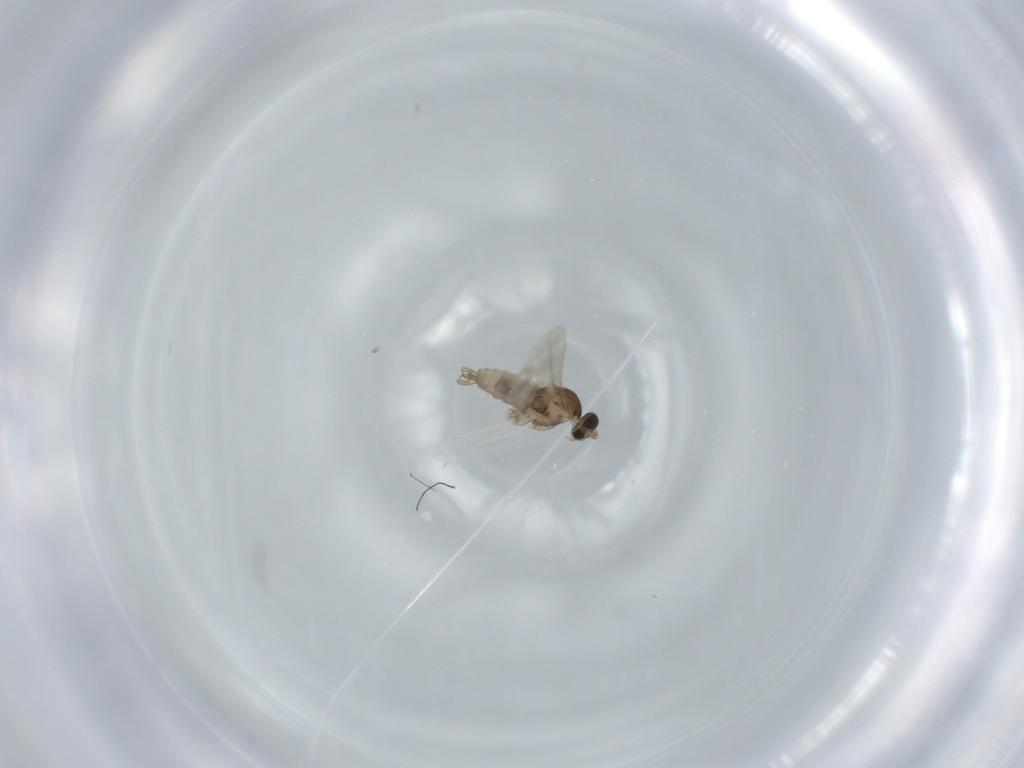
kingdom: Animalia
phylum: Arthropoda
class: Insecta
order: Diptera
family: Cecidomyiidae
